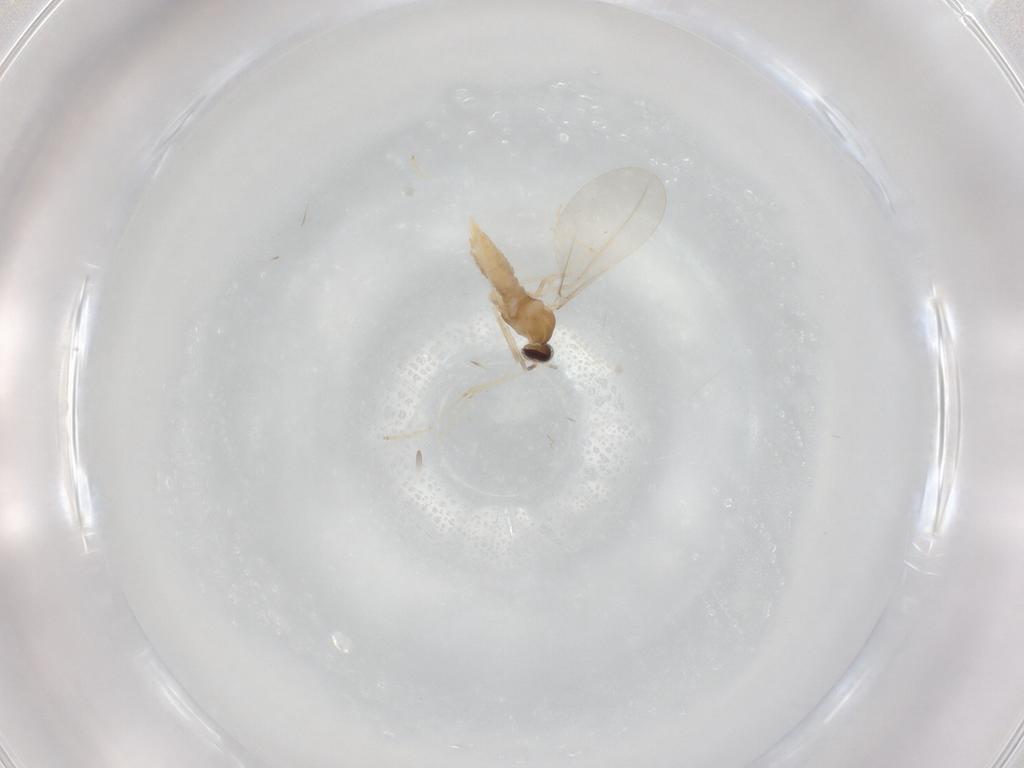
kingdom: Animalia
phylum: Arthropoda
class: Insecta
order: Diptera
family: Cecidomyiidae
